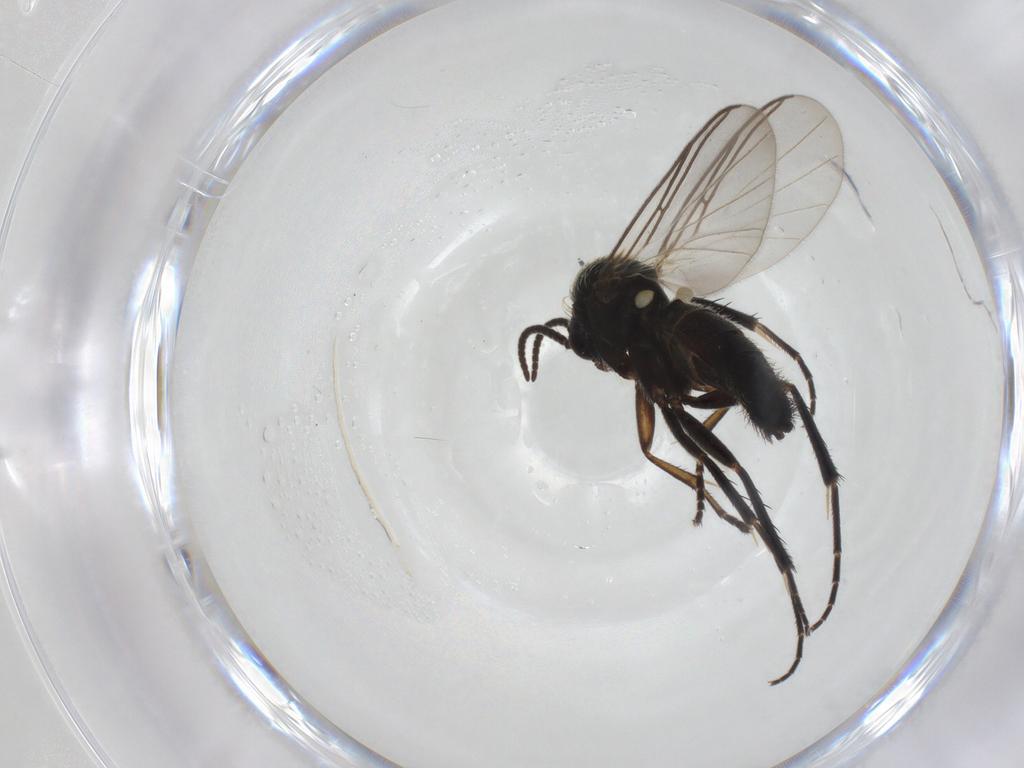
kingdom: Animalia
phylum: Arthropoda
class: Insecta
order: Diptera
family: Mycetophilidae
